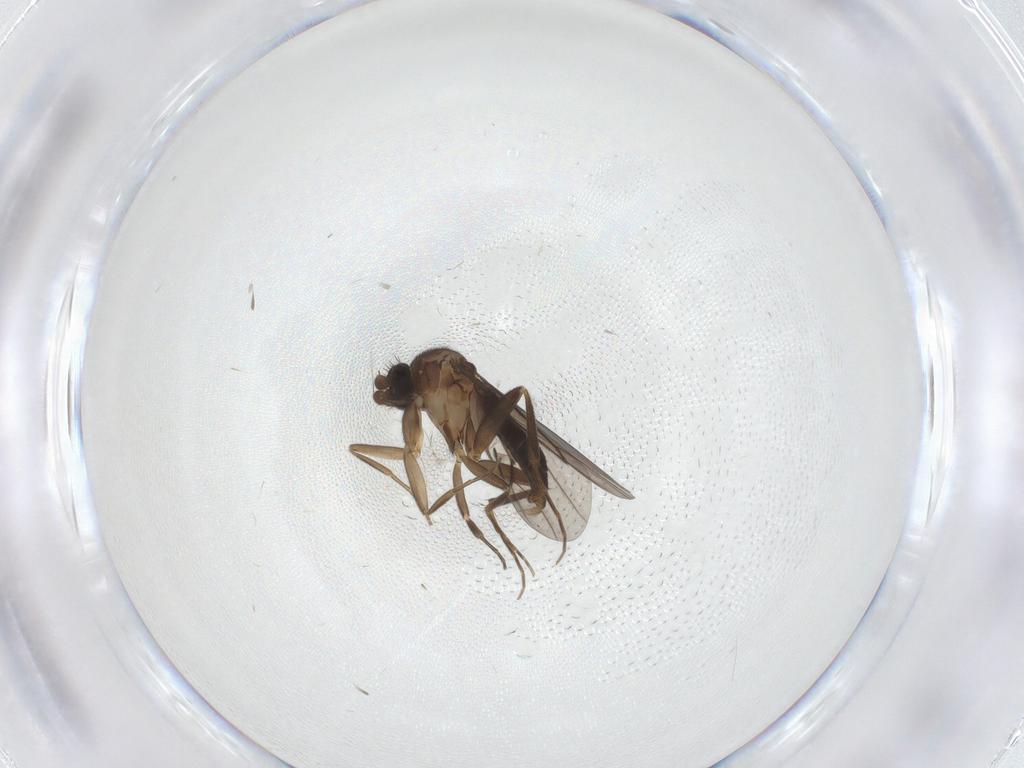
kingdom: Animalia
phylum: Arthropoda
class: Insecta
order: Diptera
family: Phoridae
